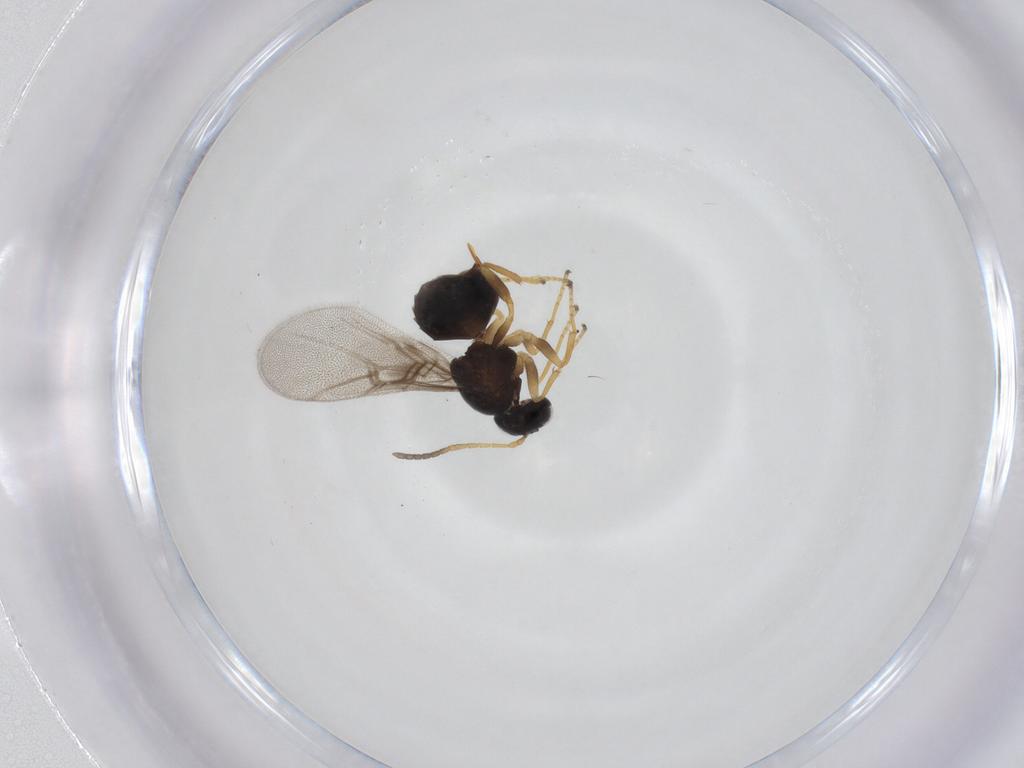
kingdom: Animalia
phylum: Arthropoda
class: Insecta
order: Hymenoptera
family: Cynipidae
